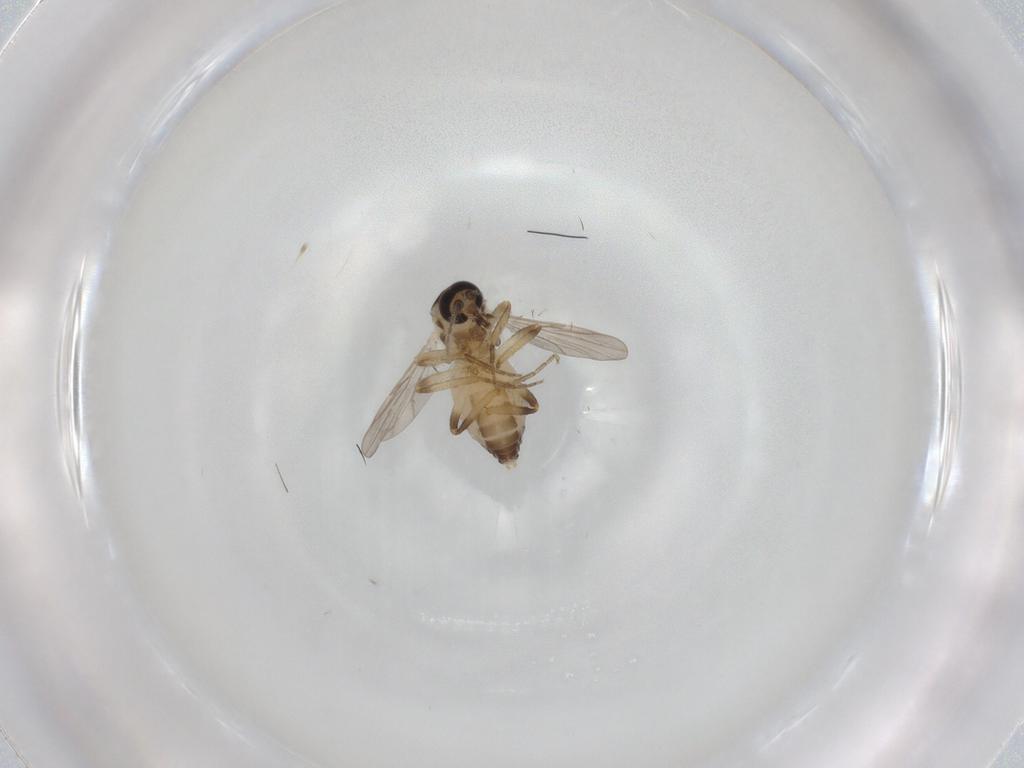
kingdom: Animalia
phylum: Arthropoda
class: Insecta
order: Diptera
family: Ceratopogonidae
